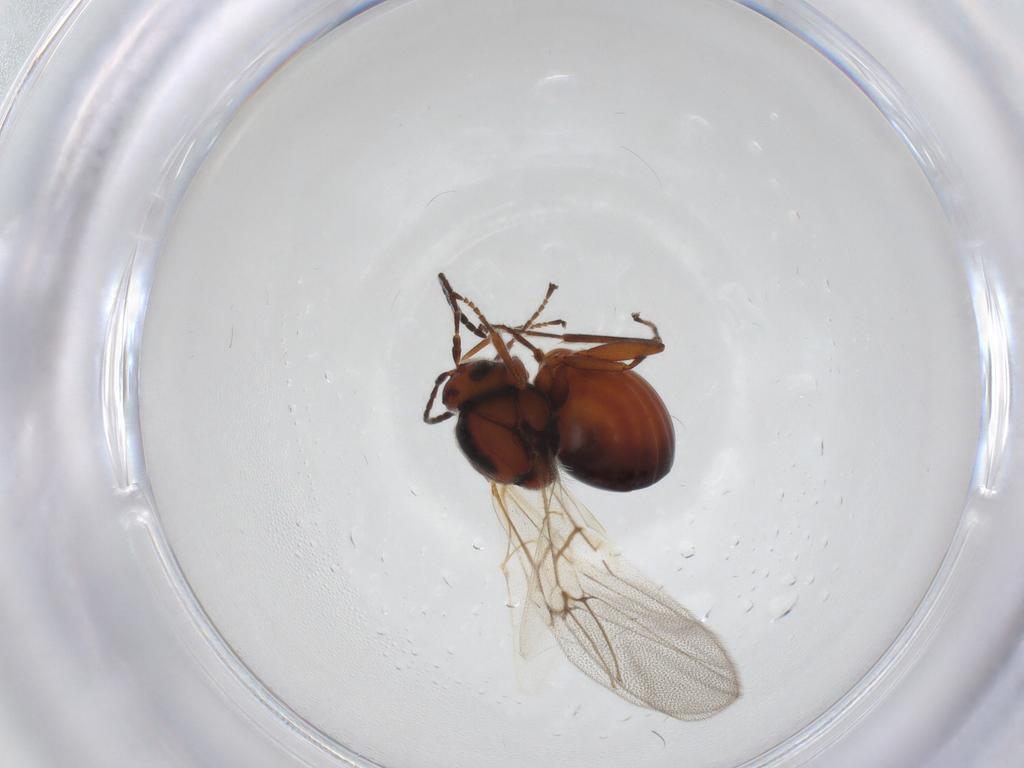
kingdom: Animalia
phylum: Arthropoda
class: Insecta
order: Hymenoptera
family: Cynipidae
